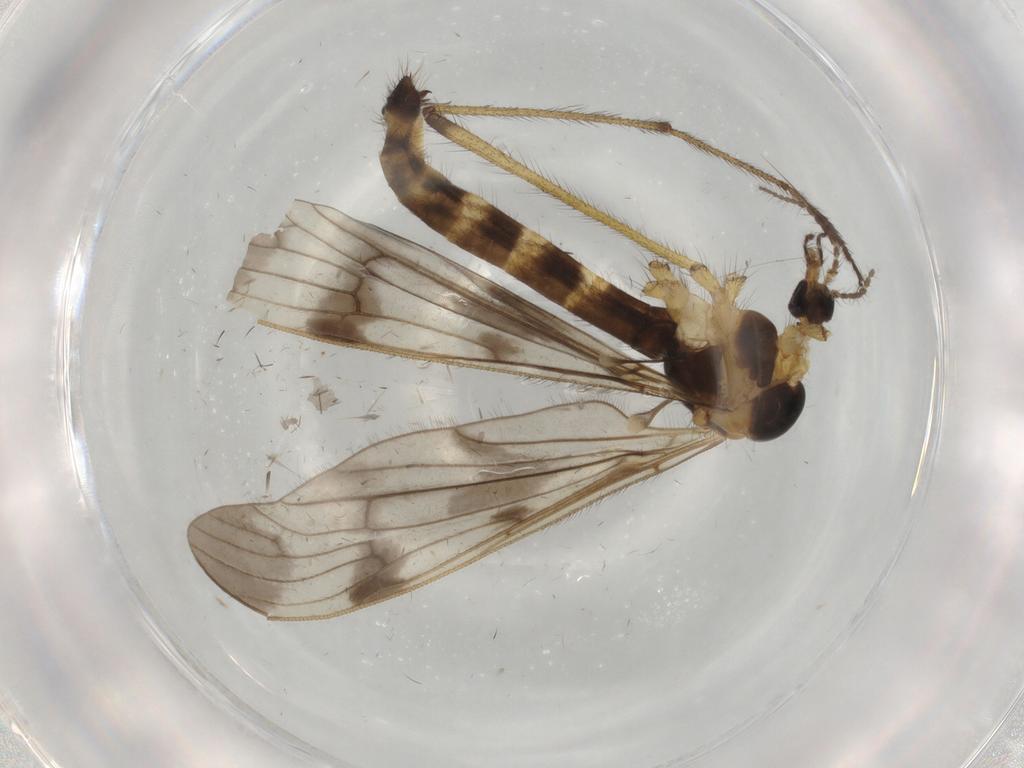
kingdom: Animalia
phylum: Arthropoda
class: Insecta
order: Diptera
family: Limoniidae
